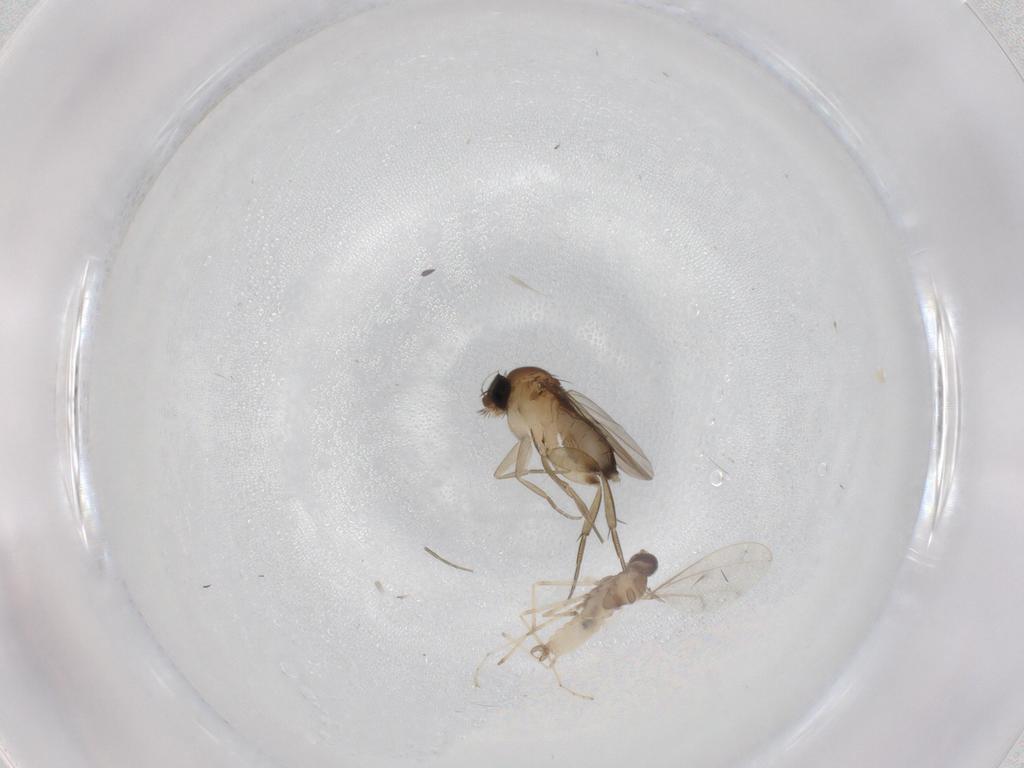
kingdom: Animalia
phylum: Arthropoda
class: Insecta
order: Diptera
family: Phoridae
